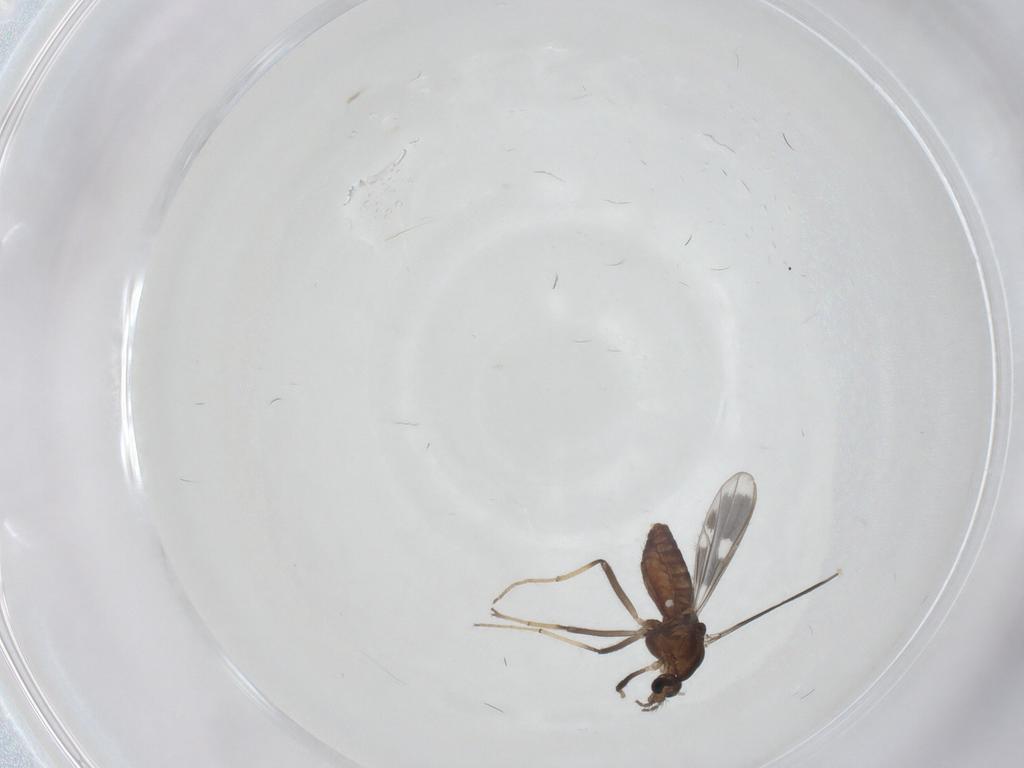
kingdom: Animalia
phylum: Arthropoda
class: Insecta
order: Diptera
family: Chironomidae
